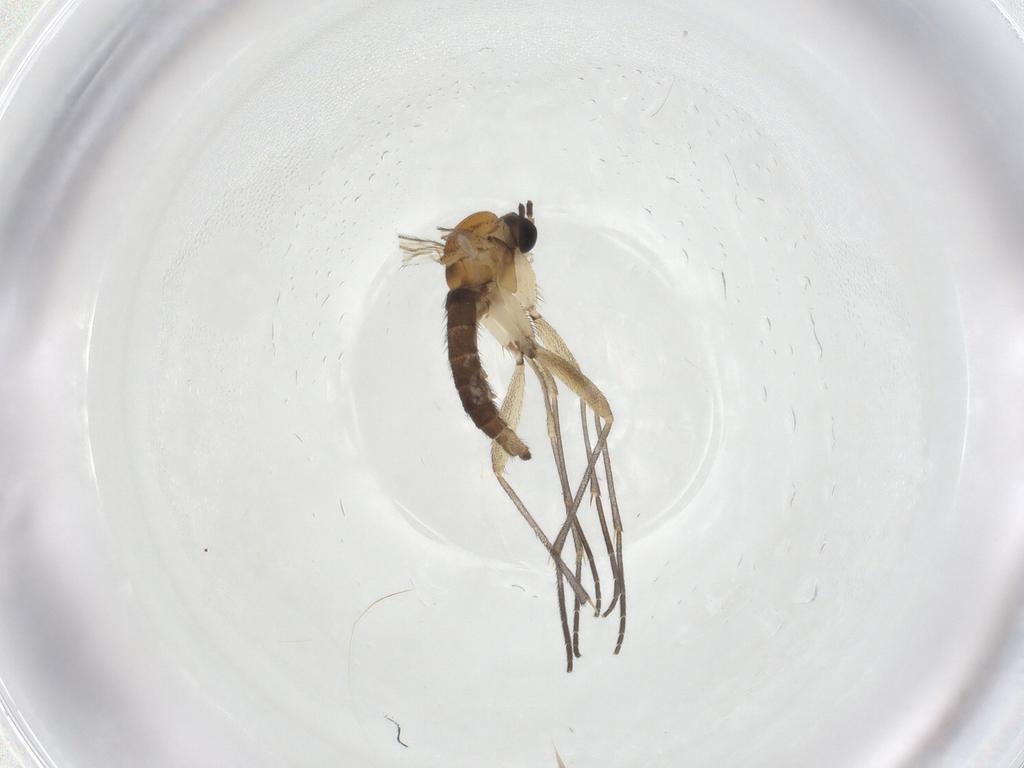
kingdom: Animalia
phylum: Arthropoda
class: Insecta
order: Diptera
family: Sciaridae
